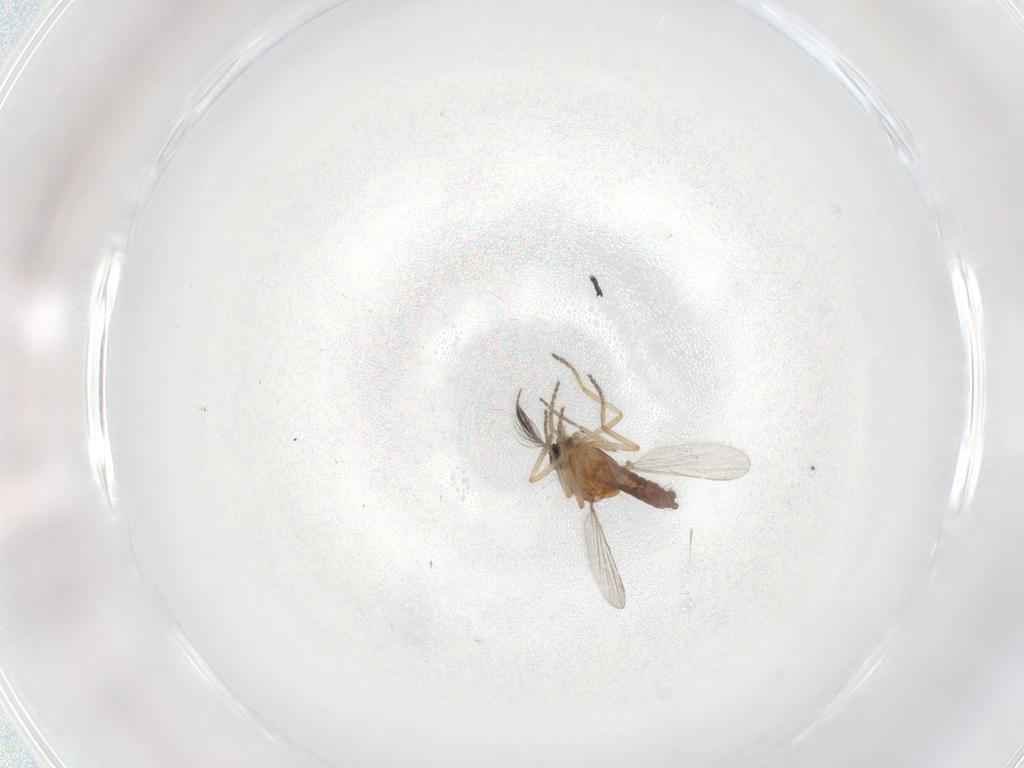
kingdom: Animalia
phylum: Arthropoda
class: Insecta
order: Diptera
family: Ceratopogonidae
